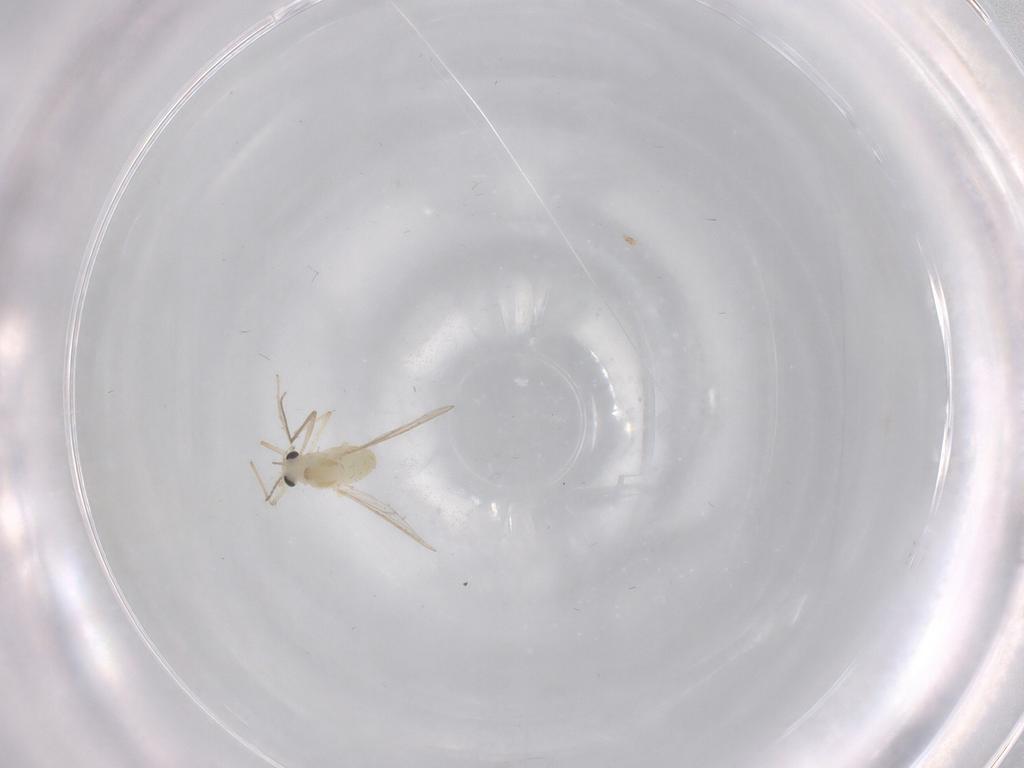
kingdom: Animalia
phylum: Arthropoda
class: Insecta
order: Diptera
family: Chironomidae
